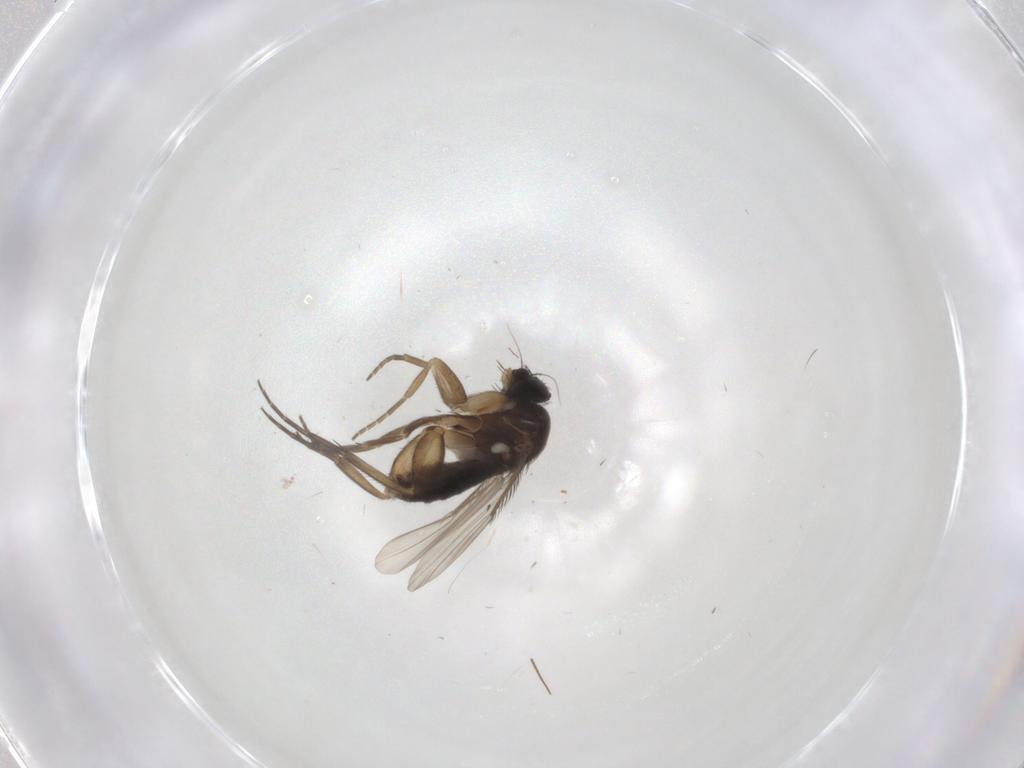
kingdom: Animalia
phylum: Arthropoda
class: Insecta
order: Diptera
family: Phoridae
